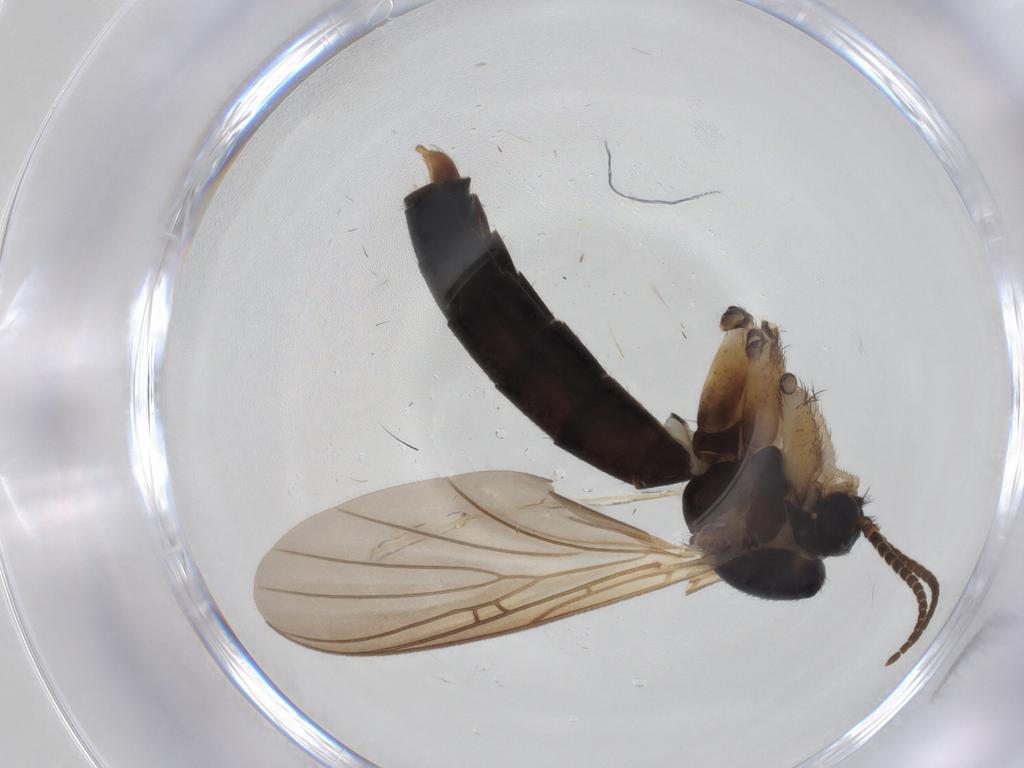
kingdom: Animalia
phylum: Arthropoda
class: Insecta
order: Diptera
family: Mycetophilidae
